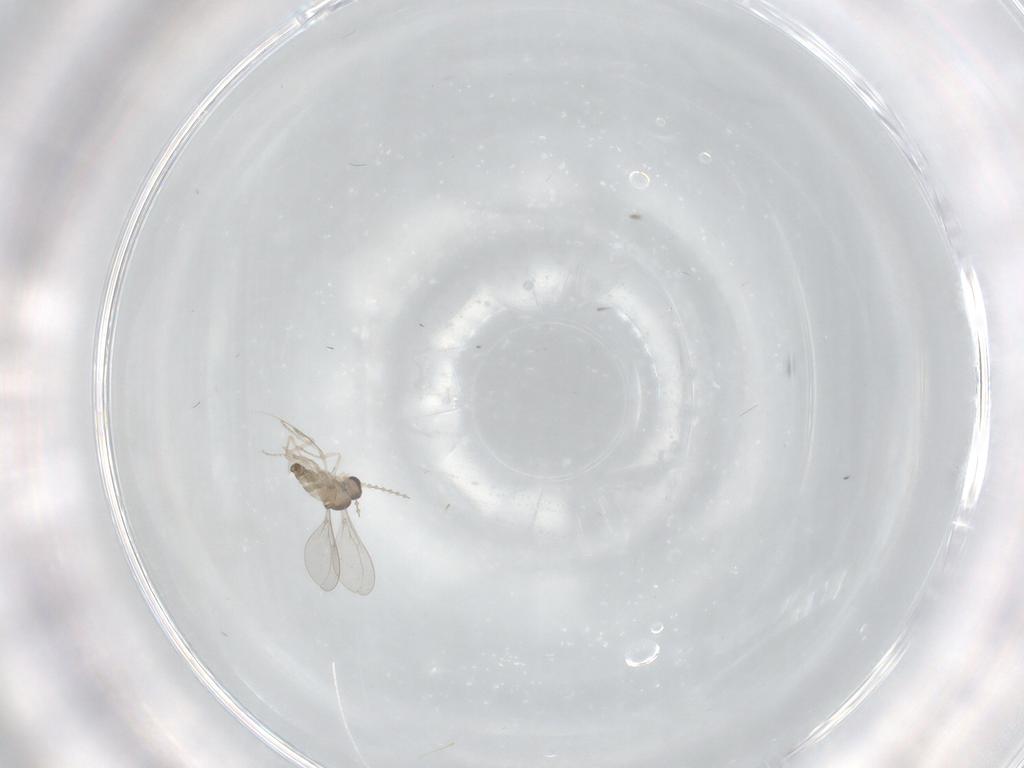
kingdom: Animalia
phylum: Arthropoda
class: Insecta
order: Diptera
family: Cecidomyiidae
